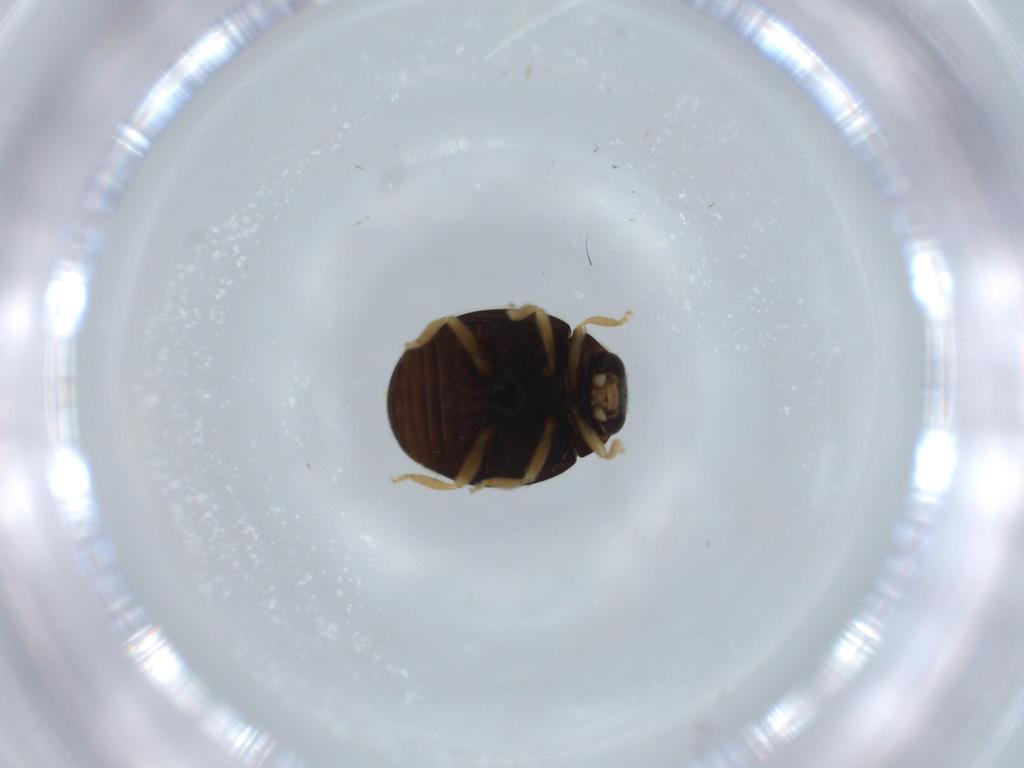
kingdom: Animalia
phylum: Arthropoda
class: Insecta
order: Coleoptera
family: Coccinellidae
